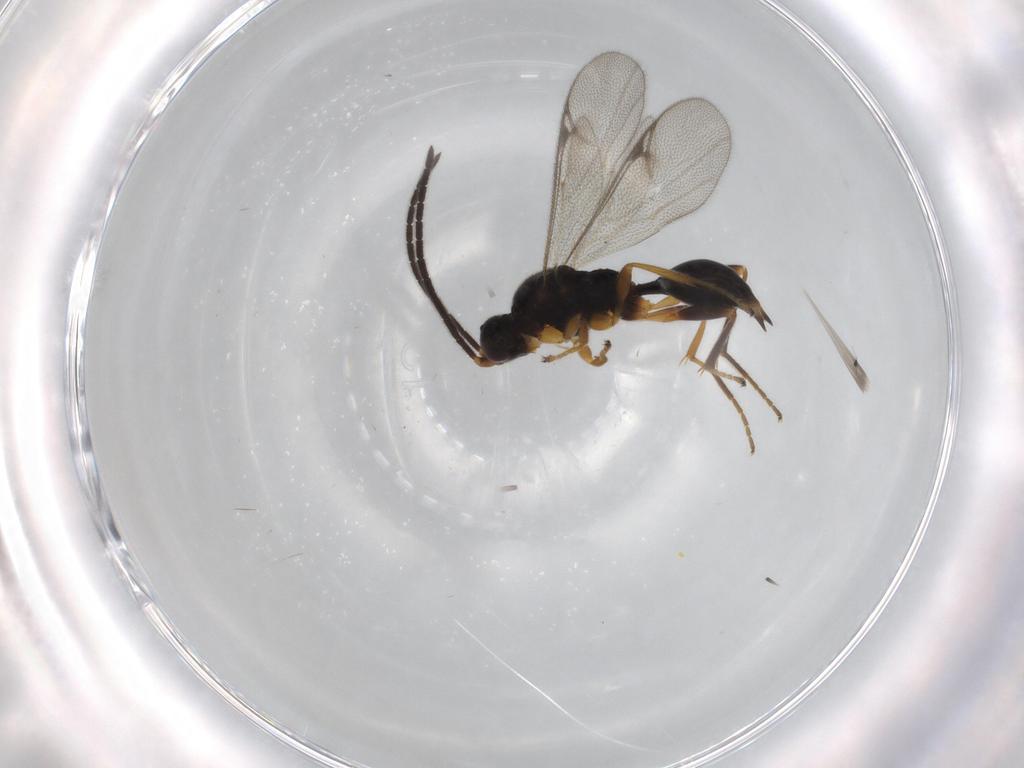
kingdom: Animalia
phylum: Arthropoda
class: Insecta
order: Hymenoptera
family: Proctotrupidae
